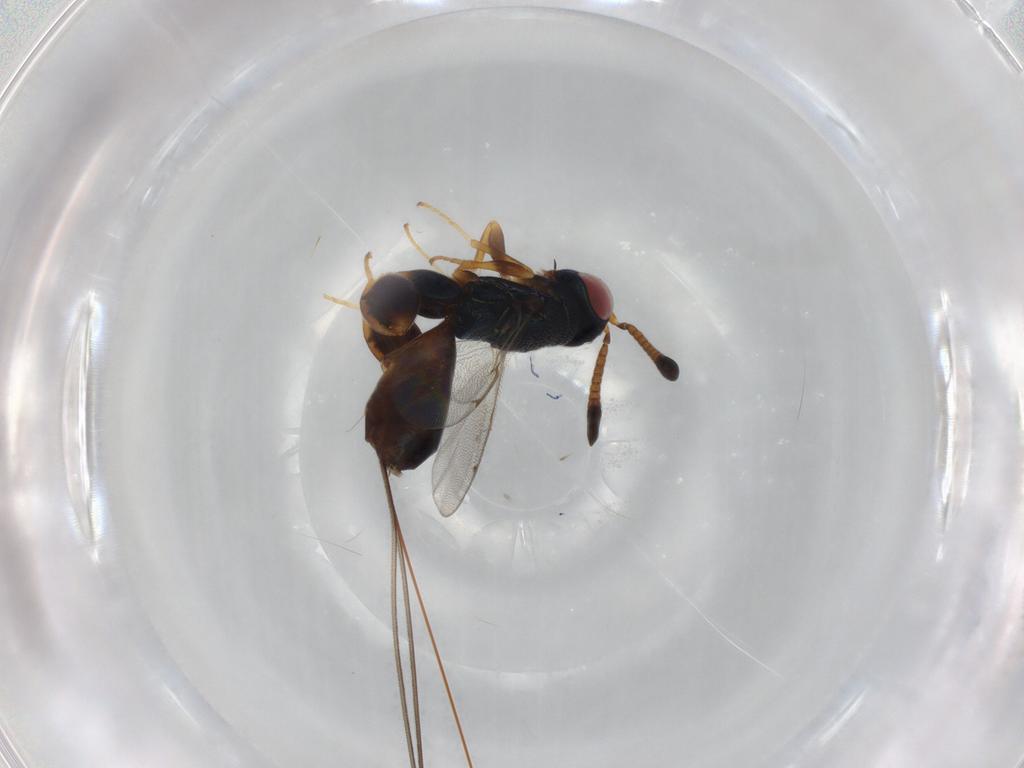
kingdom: Animalia
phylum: Arthropoda
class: Insecta
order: Hymenoptera
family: Torymidae
